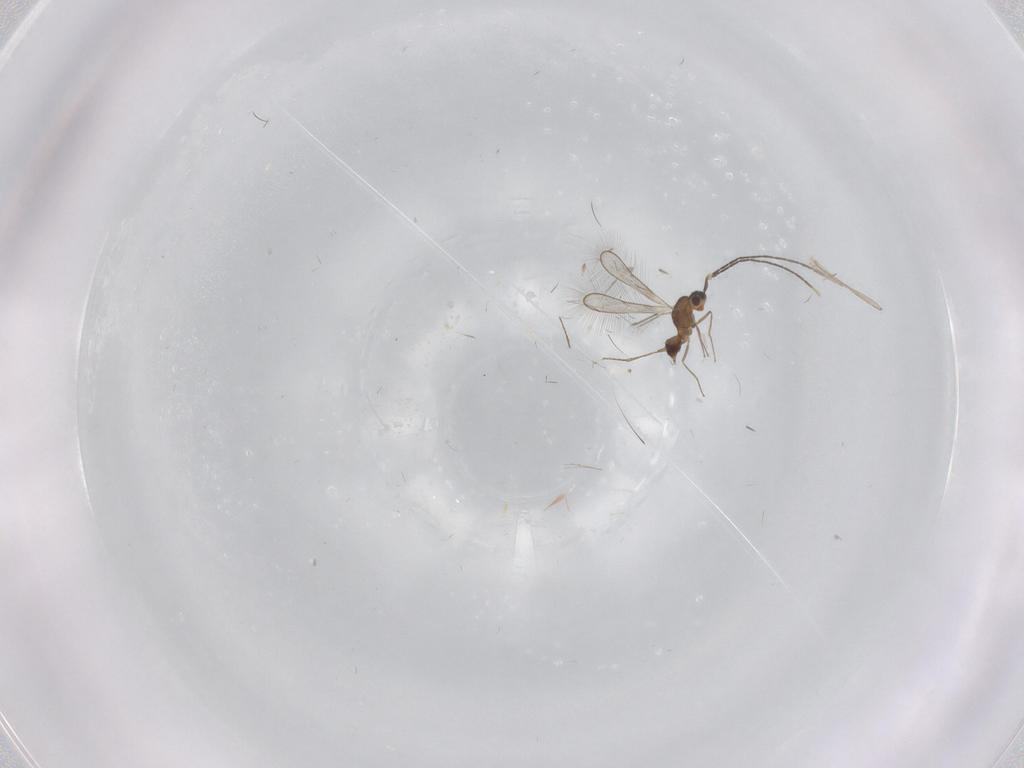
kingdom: Animalia
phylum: Arthropoda
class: Insecta
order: Diptera
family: Chironomidae
